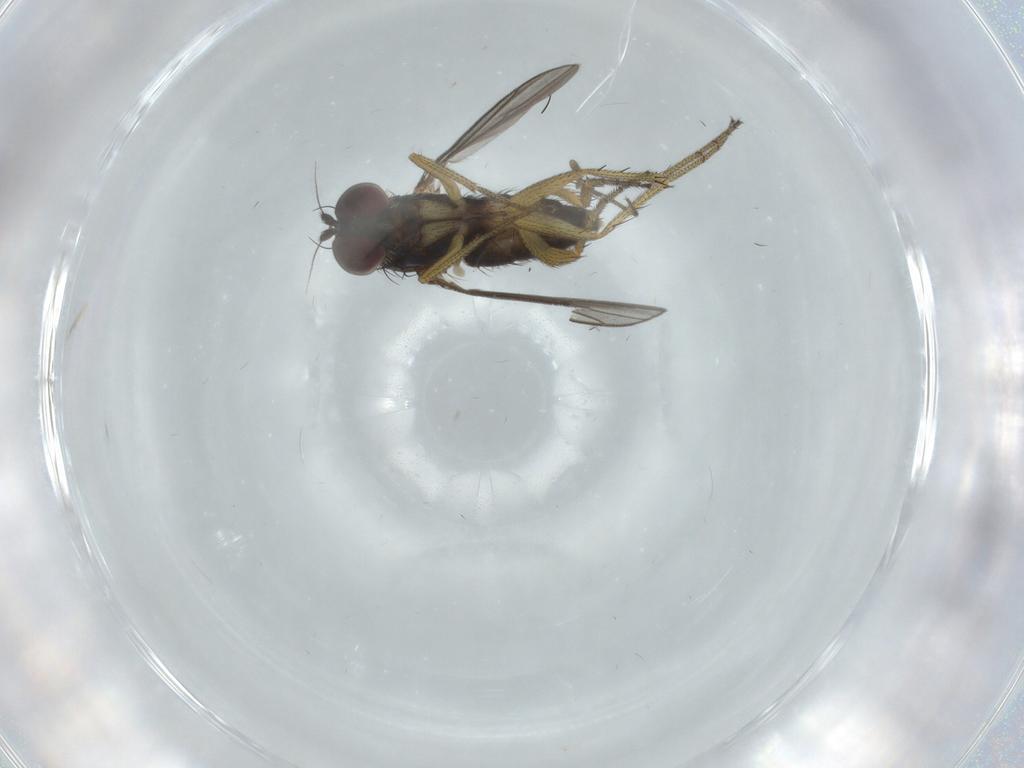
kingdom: Animalia
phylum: Arthropoda
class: Insecta
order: Diptera
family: Dolichopodidae
